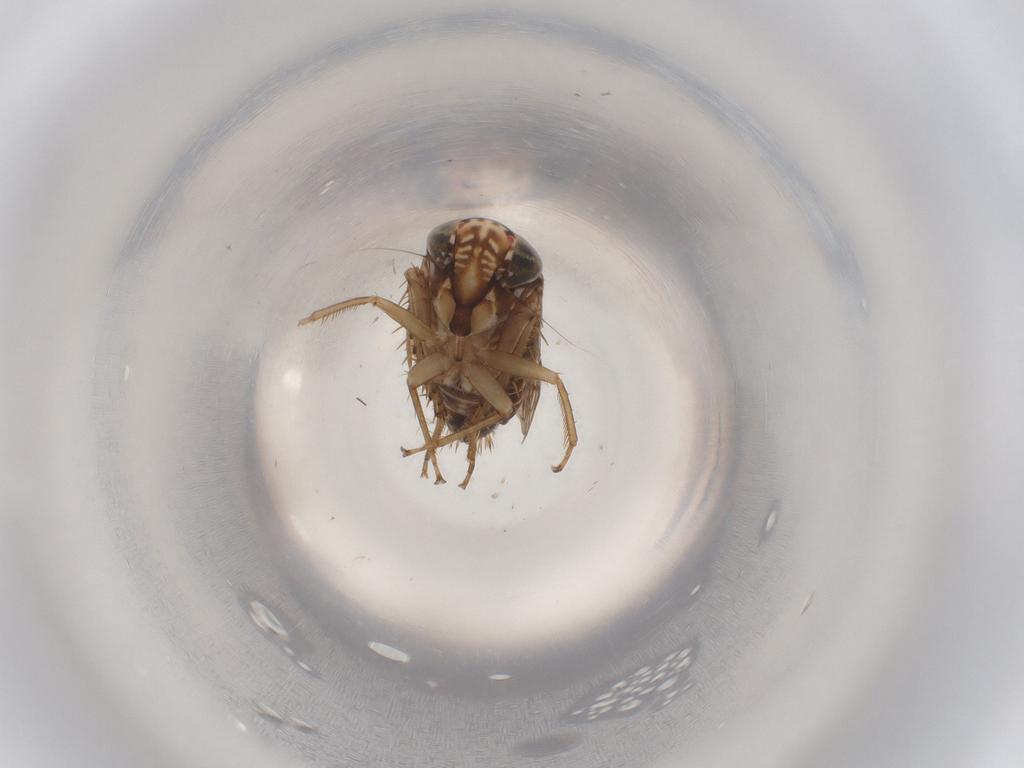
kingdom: Animalia
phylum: Arthropoda
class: Insecta
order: Hemiptera
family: Cicadellidae
